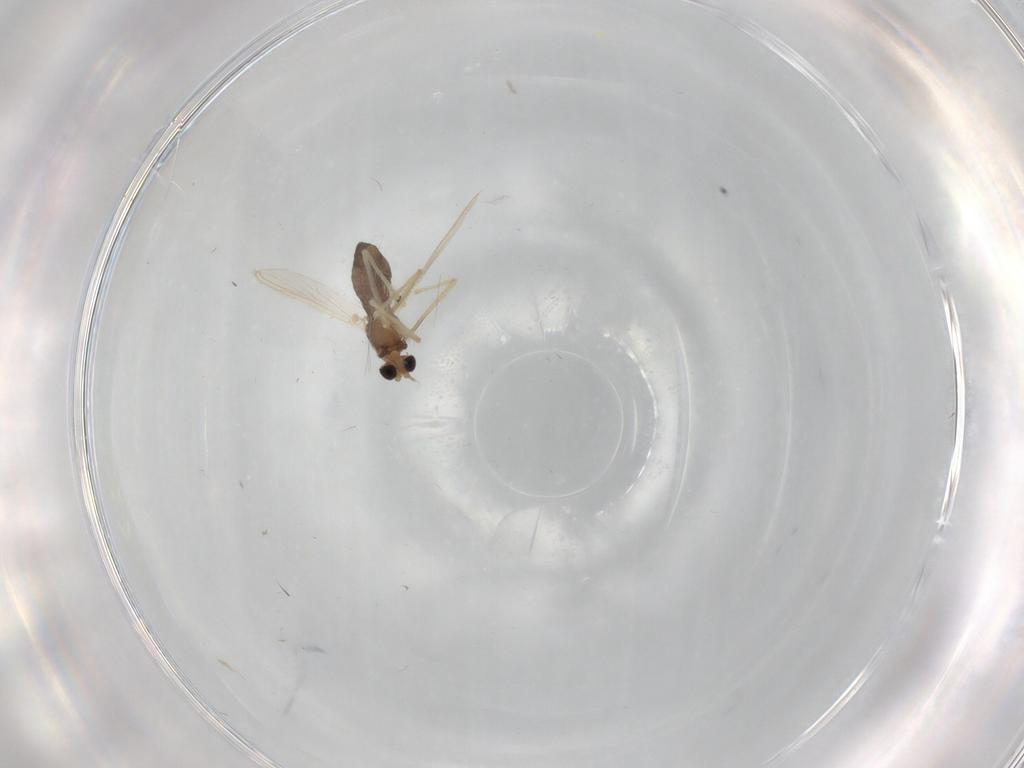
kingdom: Animalia
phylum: Arthropoda
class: Insecta
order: Diptera
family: Chironomidae
